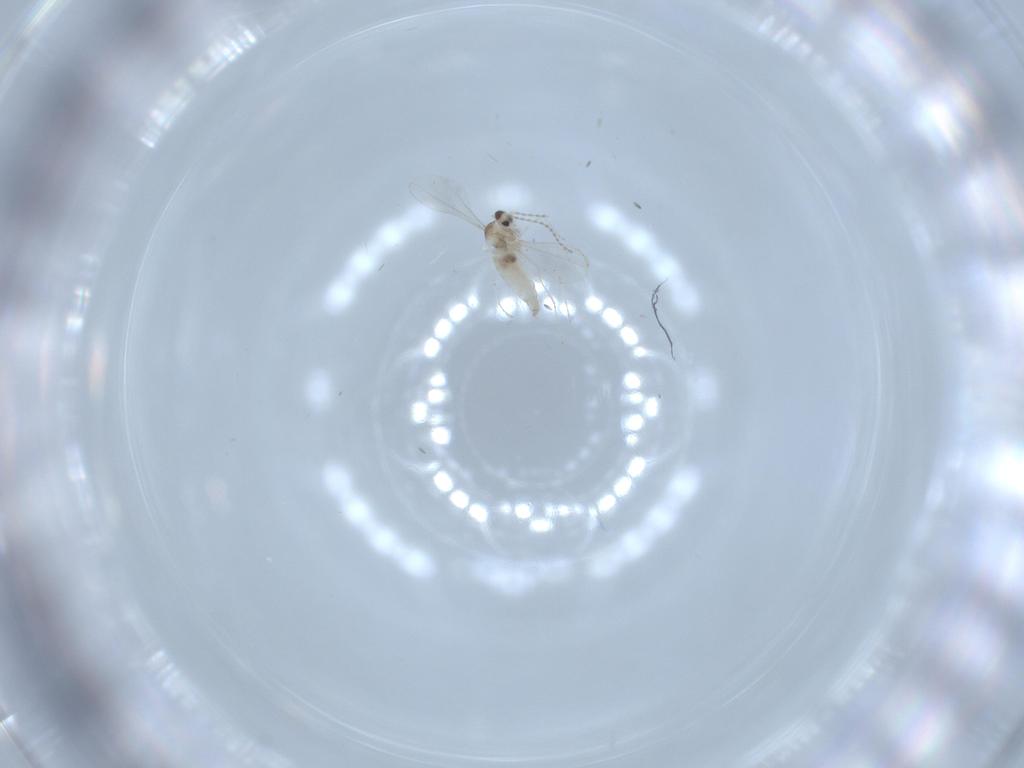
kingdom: Animalia
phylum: Arthropoda
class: Insecta
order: Diptera
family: Cecidomyiidae
